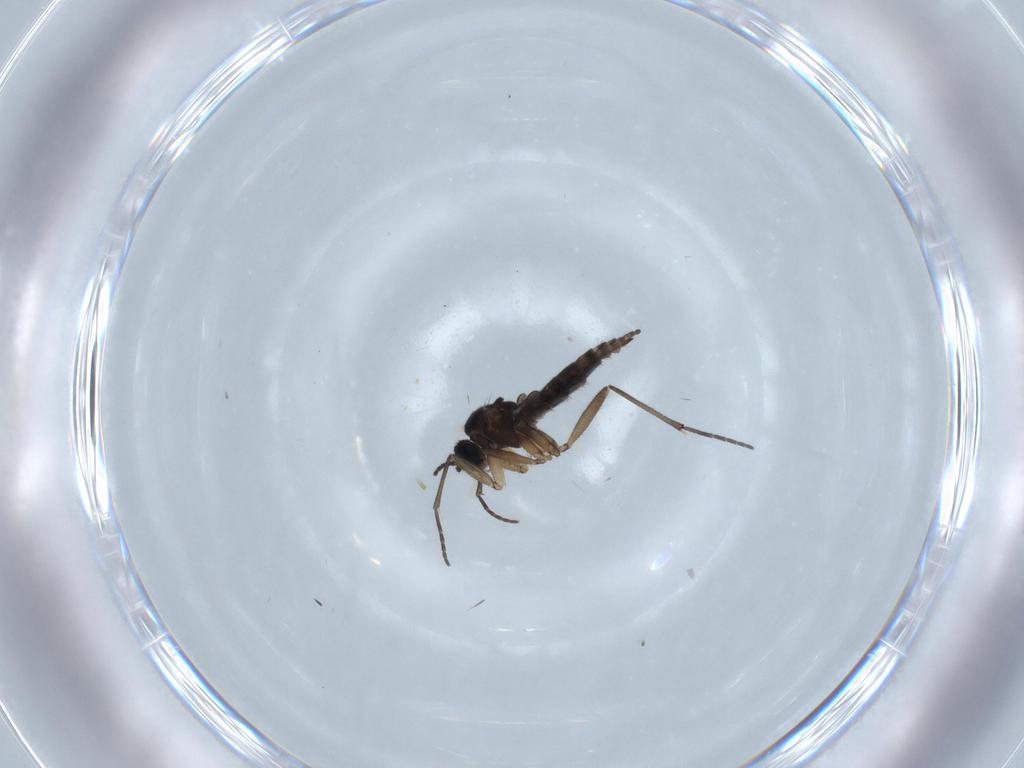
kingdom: Animalia
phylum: Arthropoda
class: Insecta
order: Diptera
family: Sciaridae
